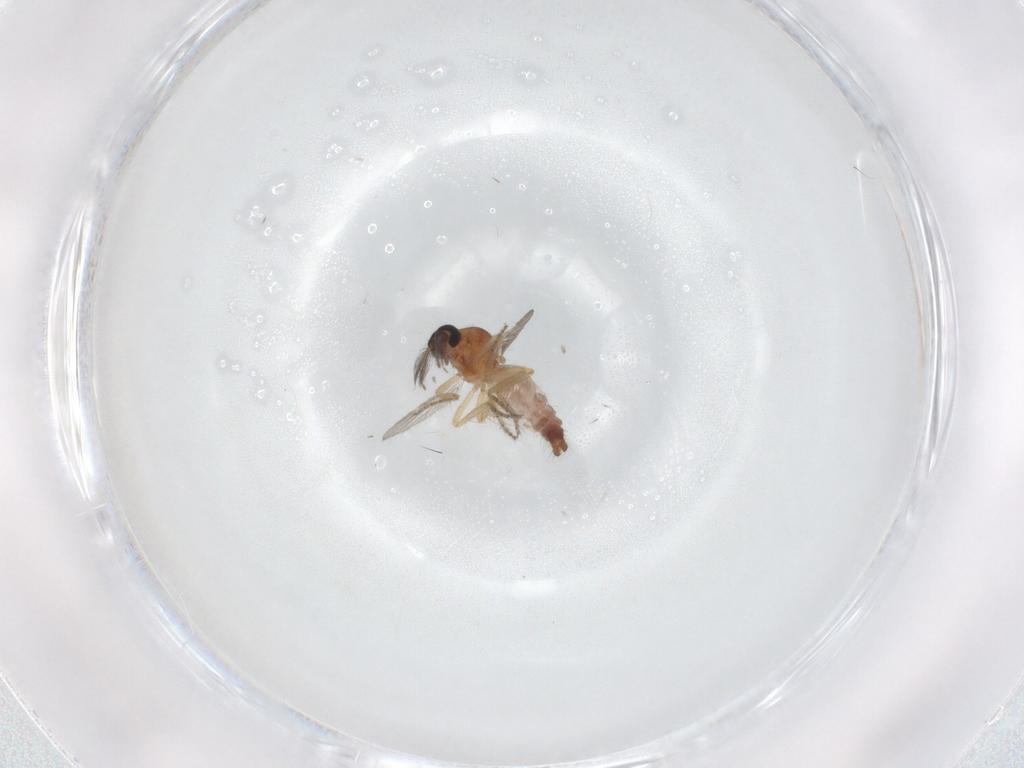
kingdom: Animalia
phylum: Arthropoda
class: Insecta
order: Diptera
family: Ceratopogonidae
